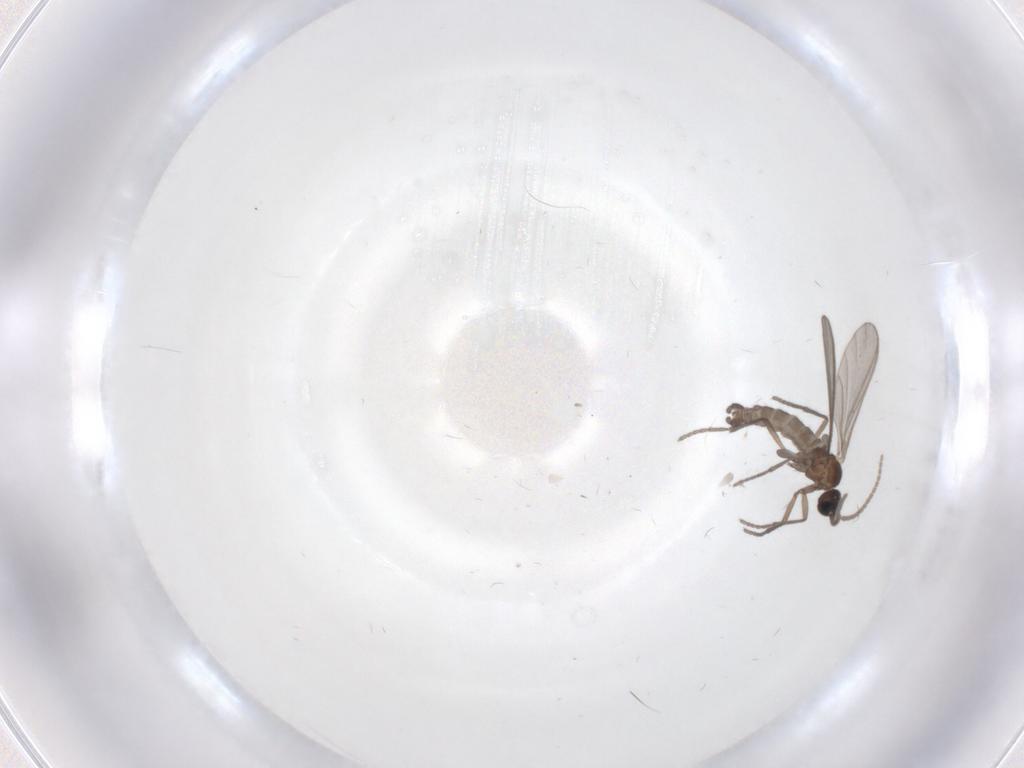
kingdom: Animalia
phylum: Arthropoda
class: Insecta
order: Diptera
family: Sciaridae
